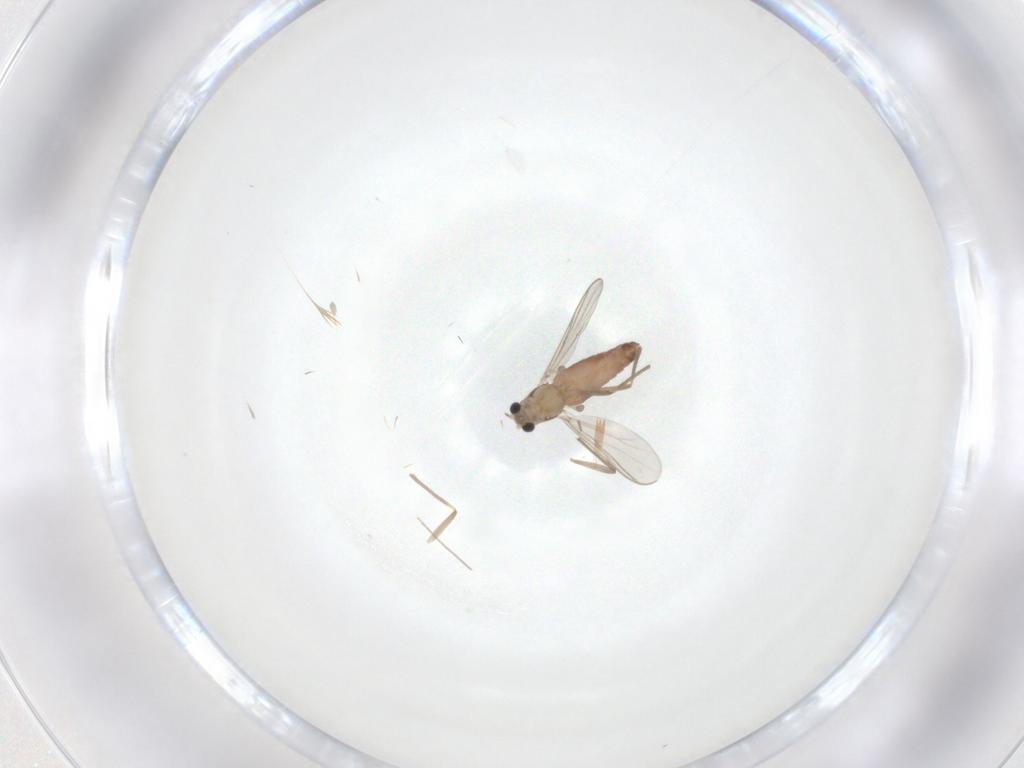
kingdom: Animalia
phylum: Arthropoda
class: Insecta
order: Diptera
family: Chironomidae
